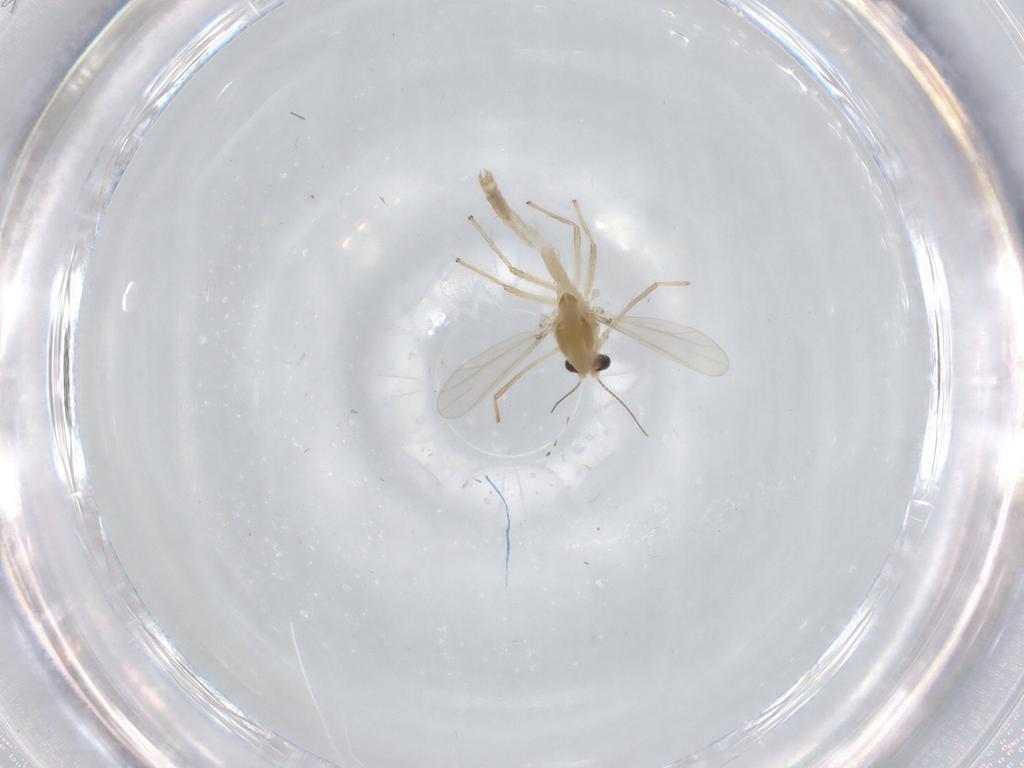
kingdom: Animalia
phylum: Arthropoda
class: Insecta
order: Diptera
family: Chironomidae
